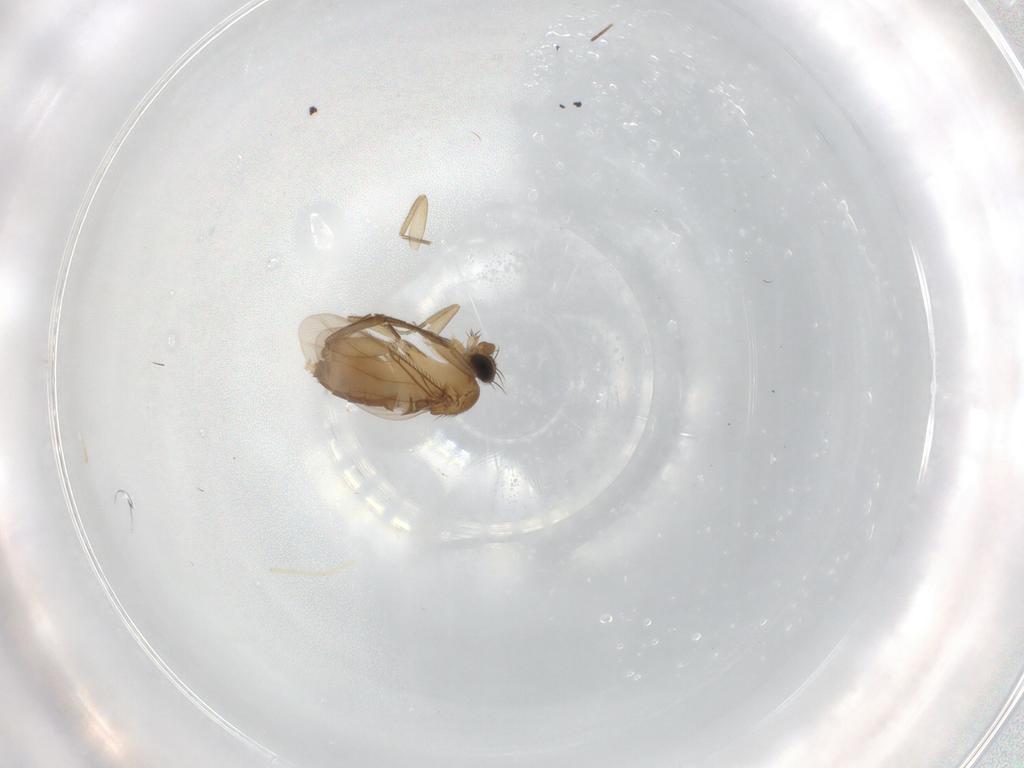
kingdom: Animalia
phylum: Arthropoda
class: Insecta
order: Diptera
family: Phoridae
